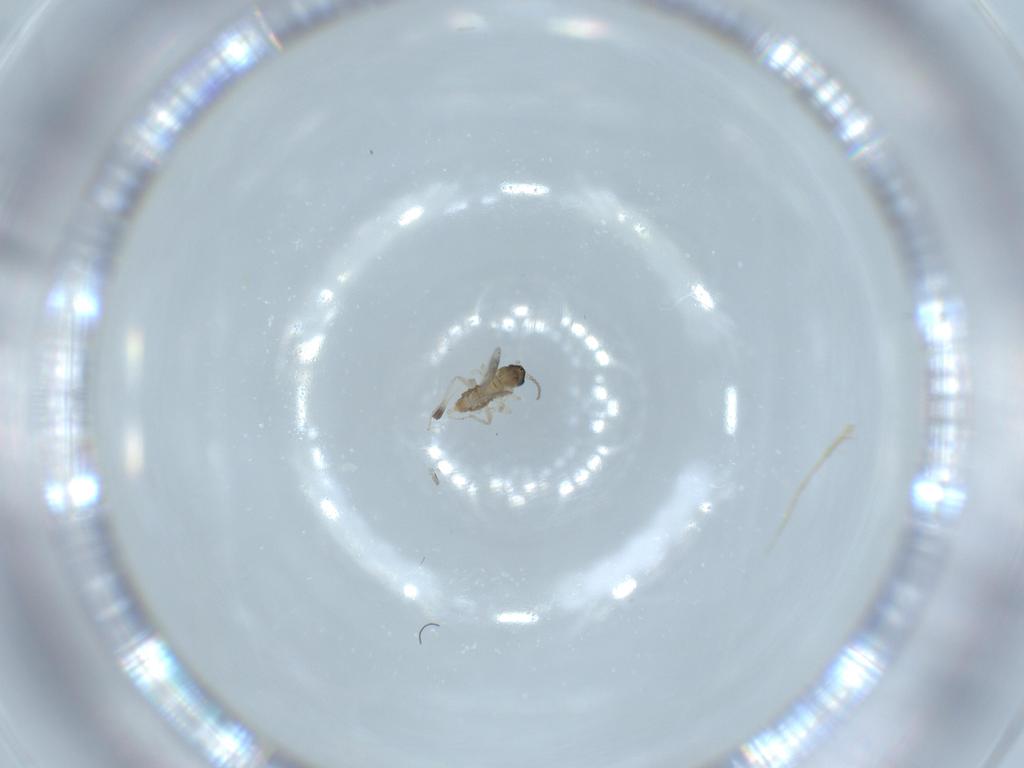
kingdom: Animalia
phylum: Arthropoda
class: Insecta
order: Diptera
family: Cecidomyiidae
